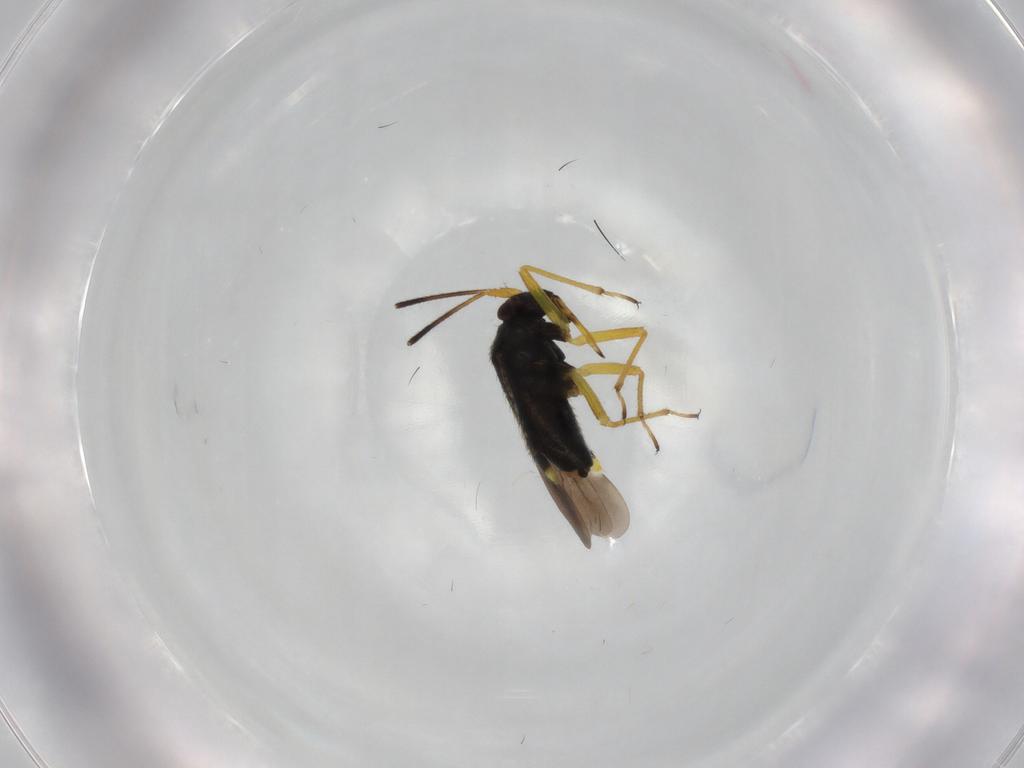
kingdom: Animalia
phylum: Arthropoda
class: Insecta
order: Hemiptera
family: Miridae
